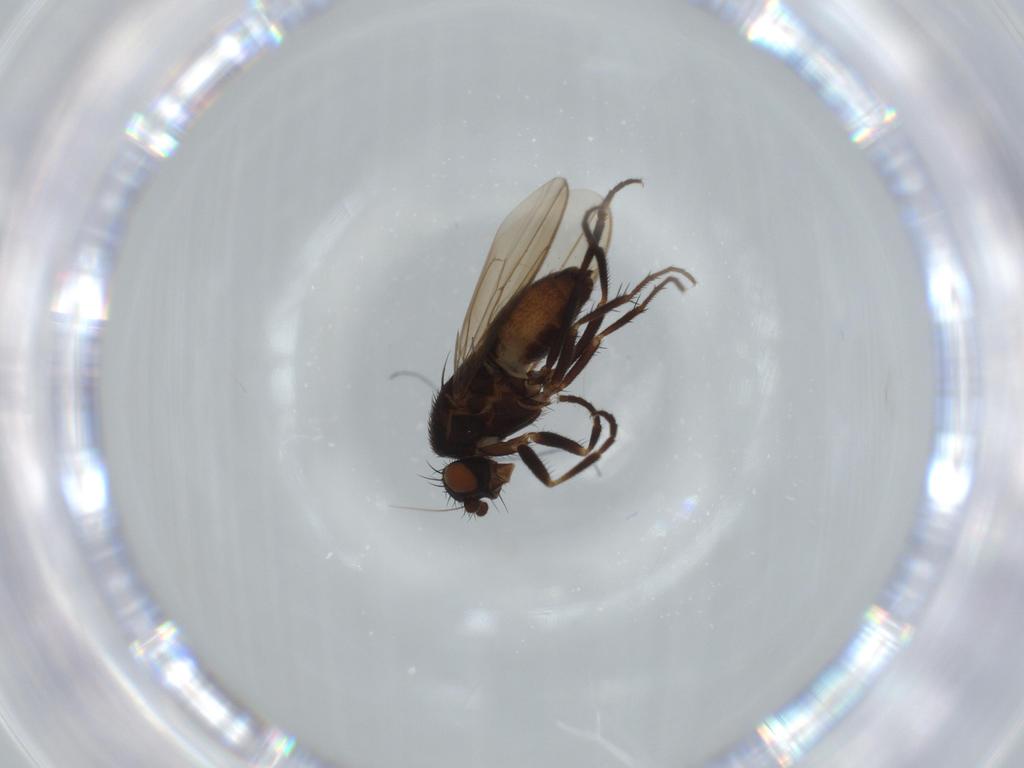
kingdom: Animalia
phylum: Arthropoda
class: Insecta
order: Diptera
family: Sphaeroceridae
